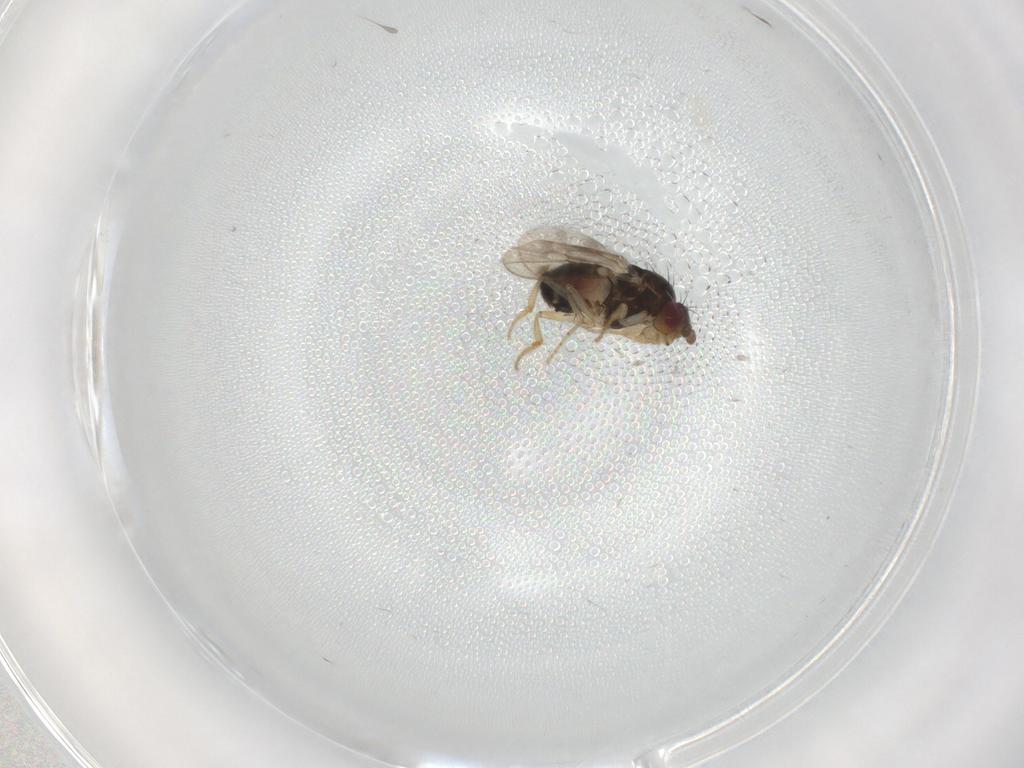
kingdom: Animalia
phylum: Arthropoda
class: Insecta
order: Diptera
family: Sphaeroceridae
